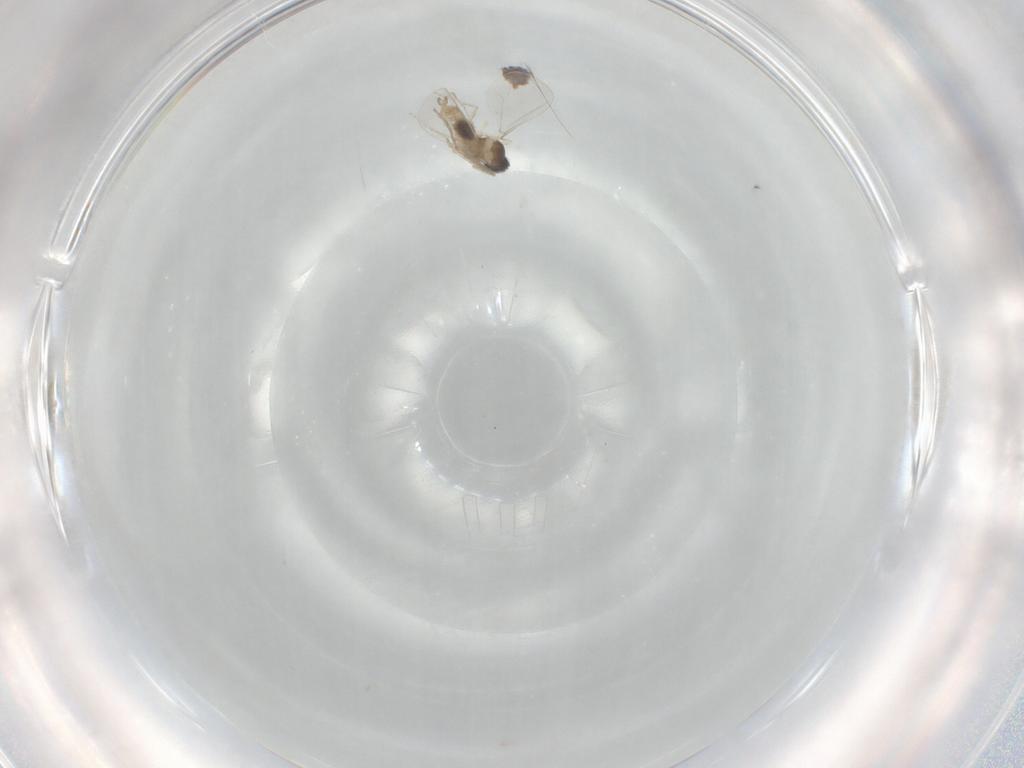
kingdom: Animalia
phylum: Arthropoda
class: Insecta
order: Diptera
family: Cecidomyiidae
